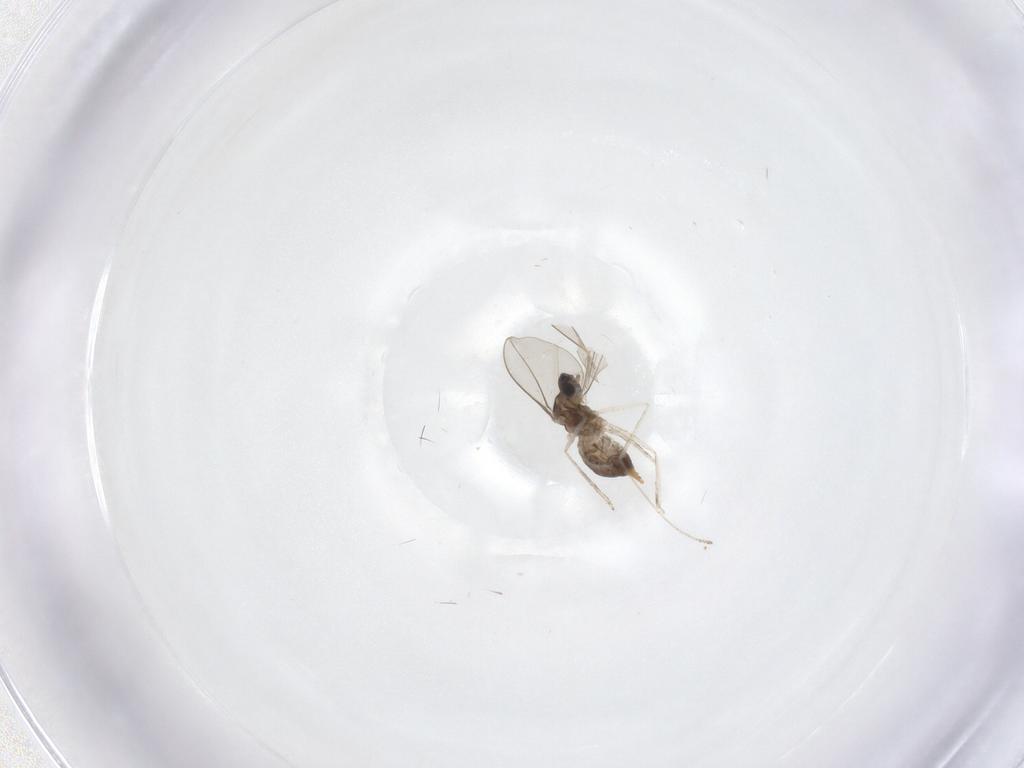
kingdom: Animalia
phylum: Arthropoda
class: Insecta
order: Diptera
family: Cecidomyiidae
